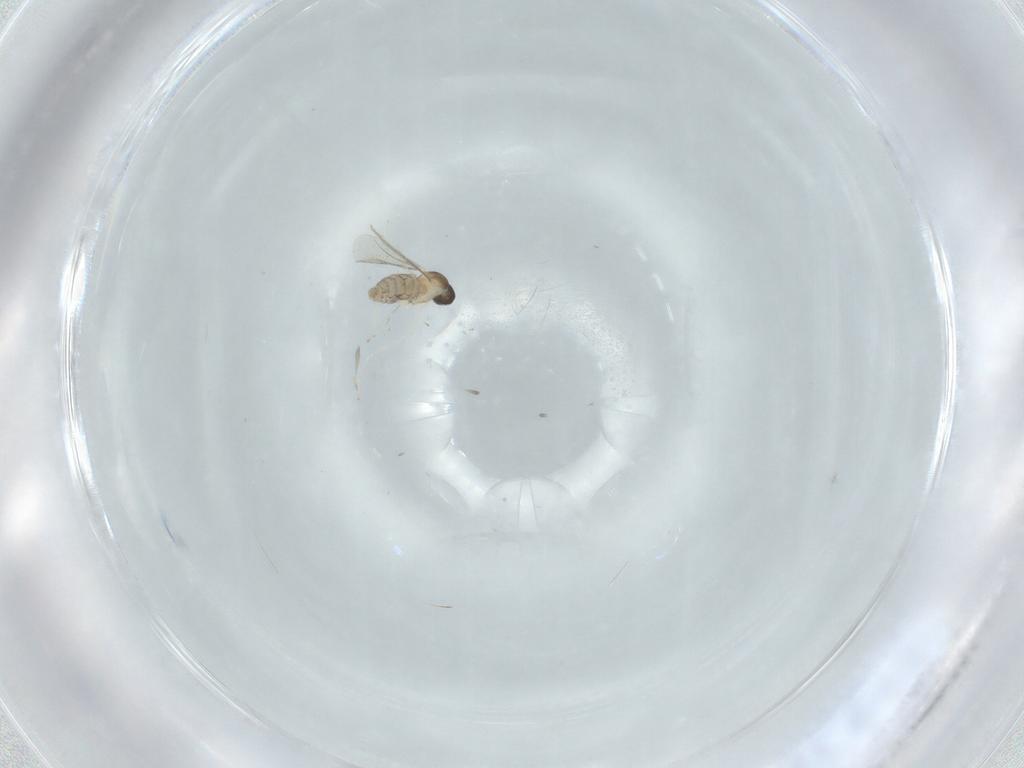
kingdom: Animalia
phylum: Arthropoda
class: Insecta
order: Diptera
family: Cecidomyiidae
